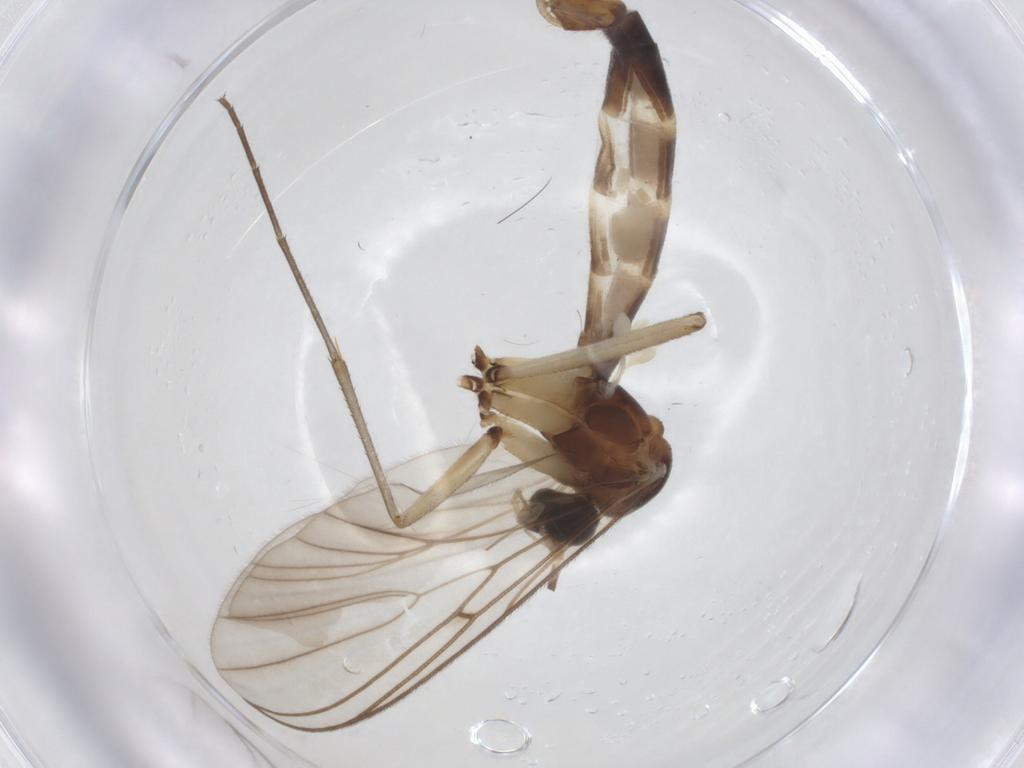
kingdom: Animalia
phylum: Arthropoda
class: Insecta
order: Diptera
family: Mycetophilidae
